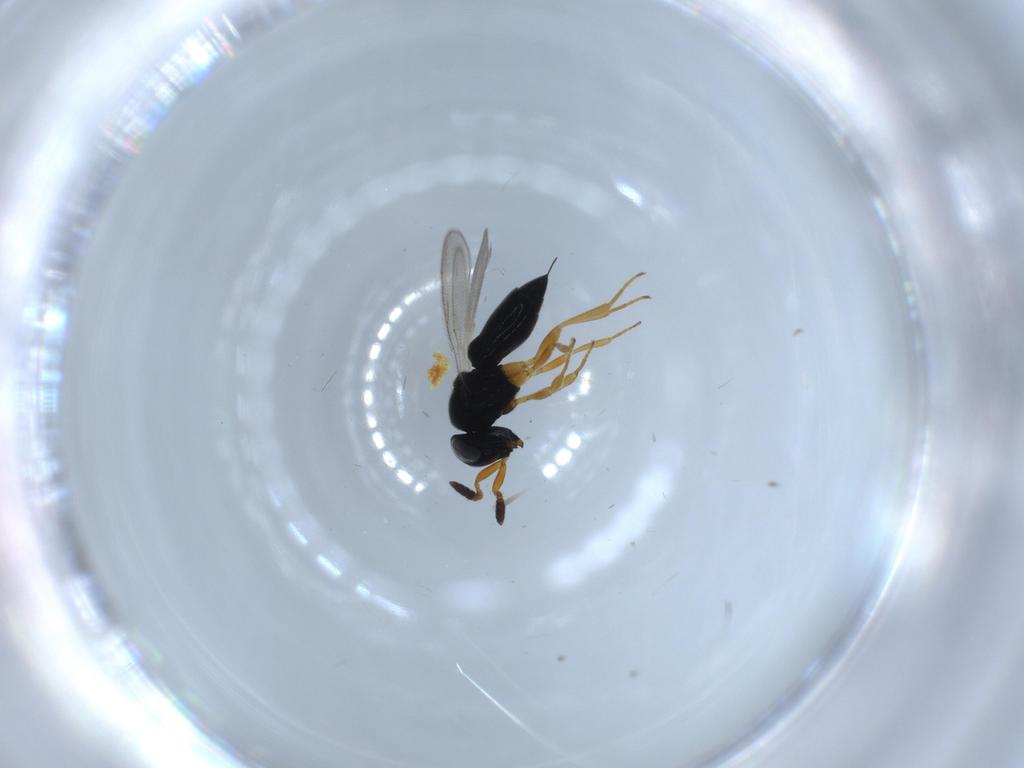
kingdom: Animalia
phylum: Arthropoda
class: Insecta
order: Hymenoptera
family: Scelionidae
